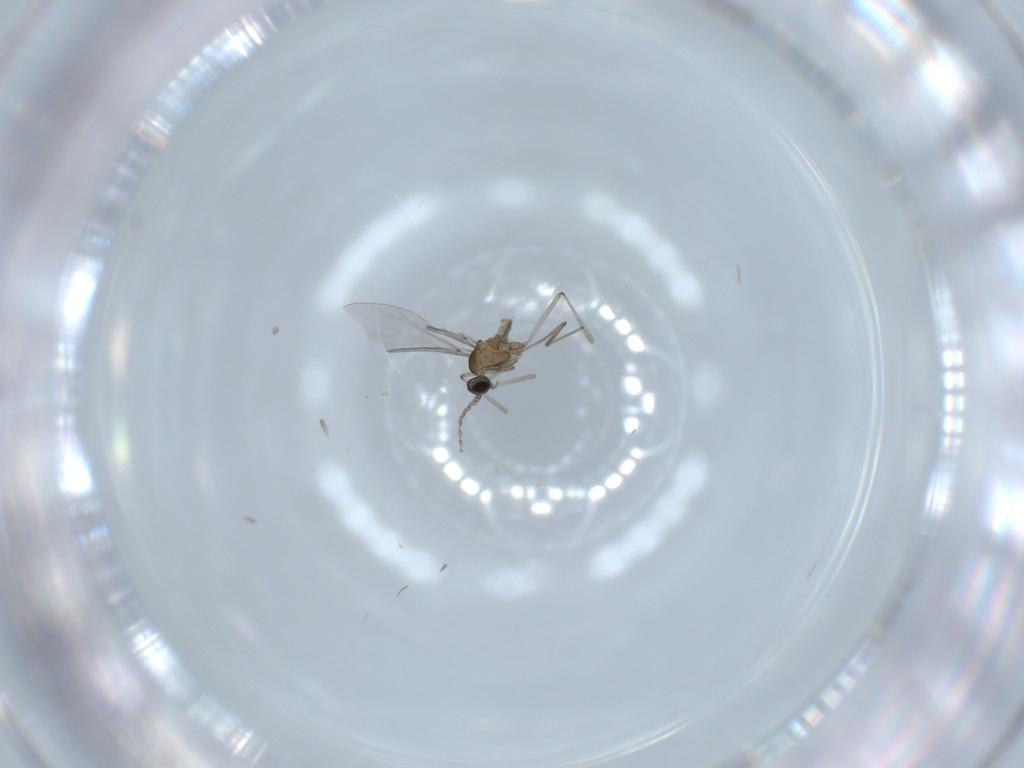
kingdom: Animalia
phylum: Arthropoda
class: Insecta
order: Diptera
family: Cecidomyiidae
